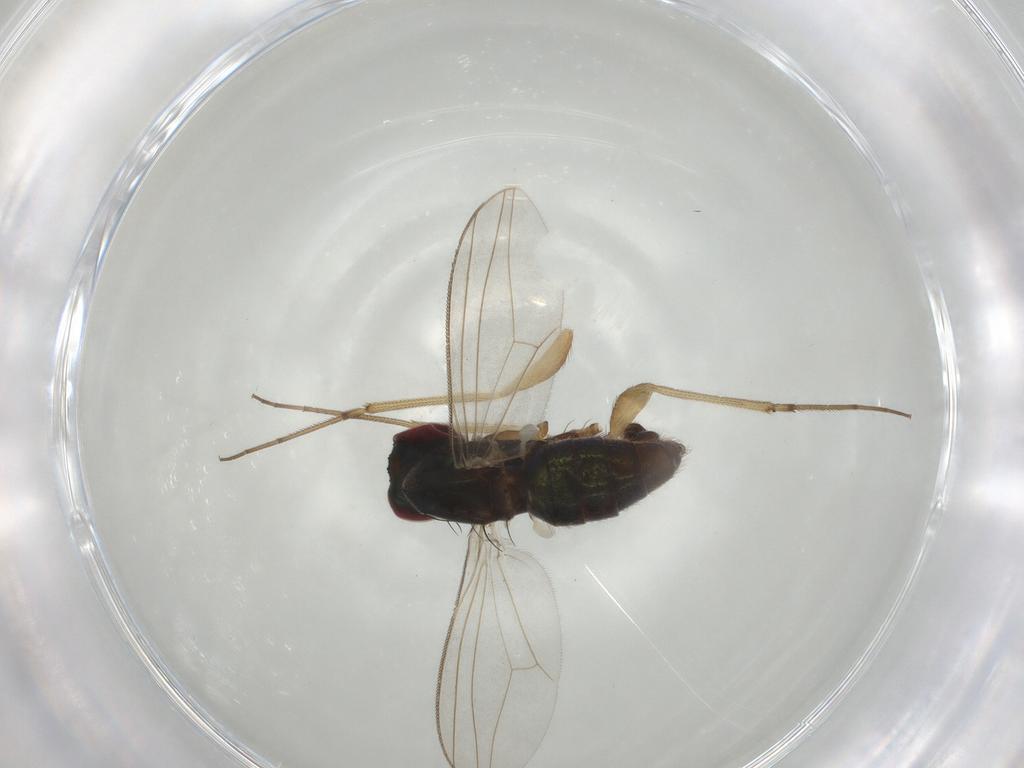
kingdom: Animalia
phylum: Arthropoda
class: Insecta
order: Diptera
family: Dolichopodidae
